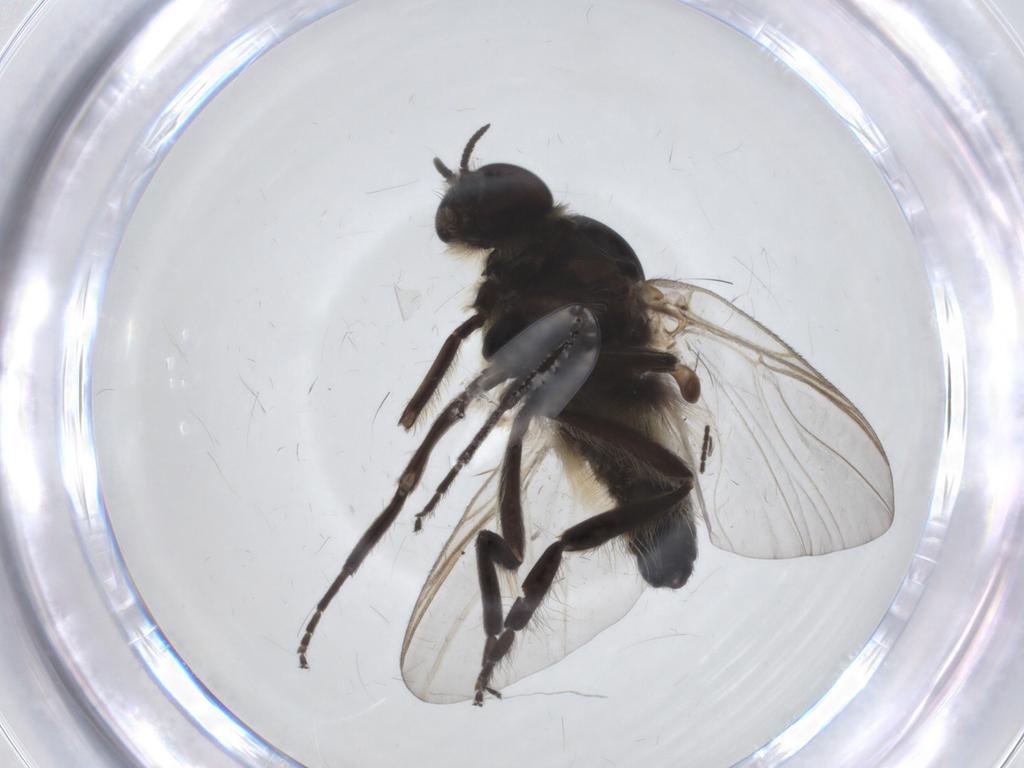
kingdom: Animalia
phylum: Arthropoda
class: Insecta
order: Diptera
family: Sciaridae
